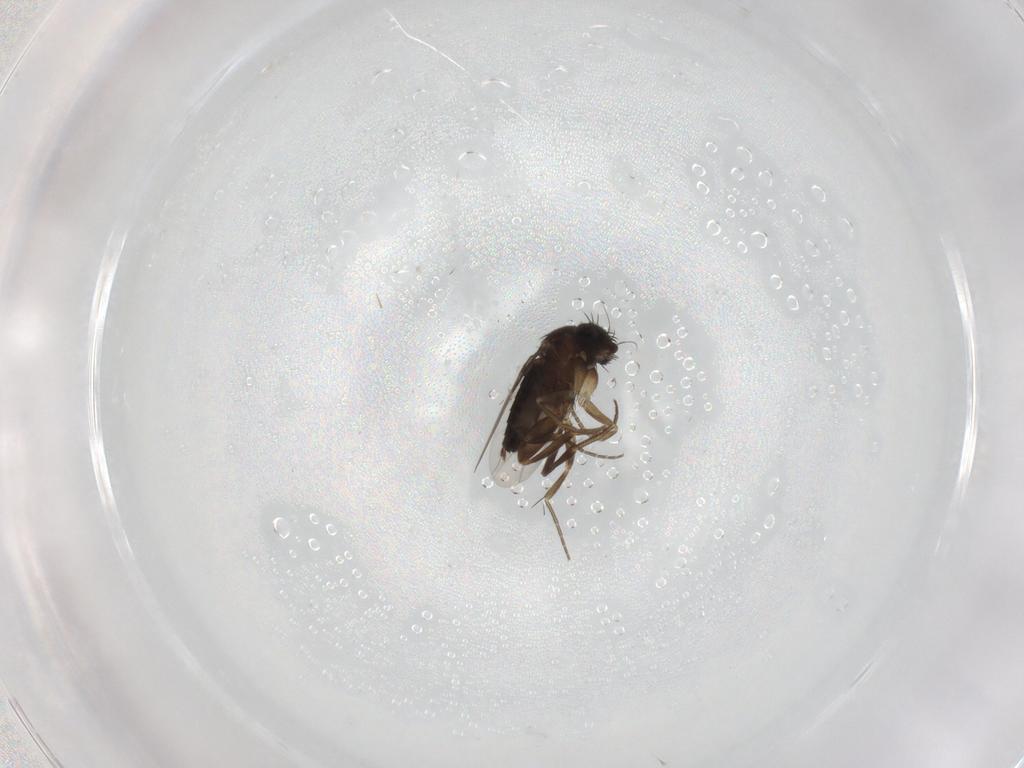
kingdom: Animalia
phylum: Arthropoda
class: Insecta
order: Diptera
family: Phoridae
